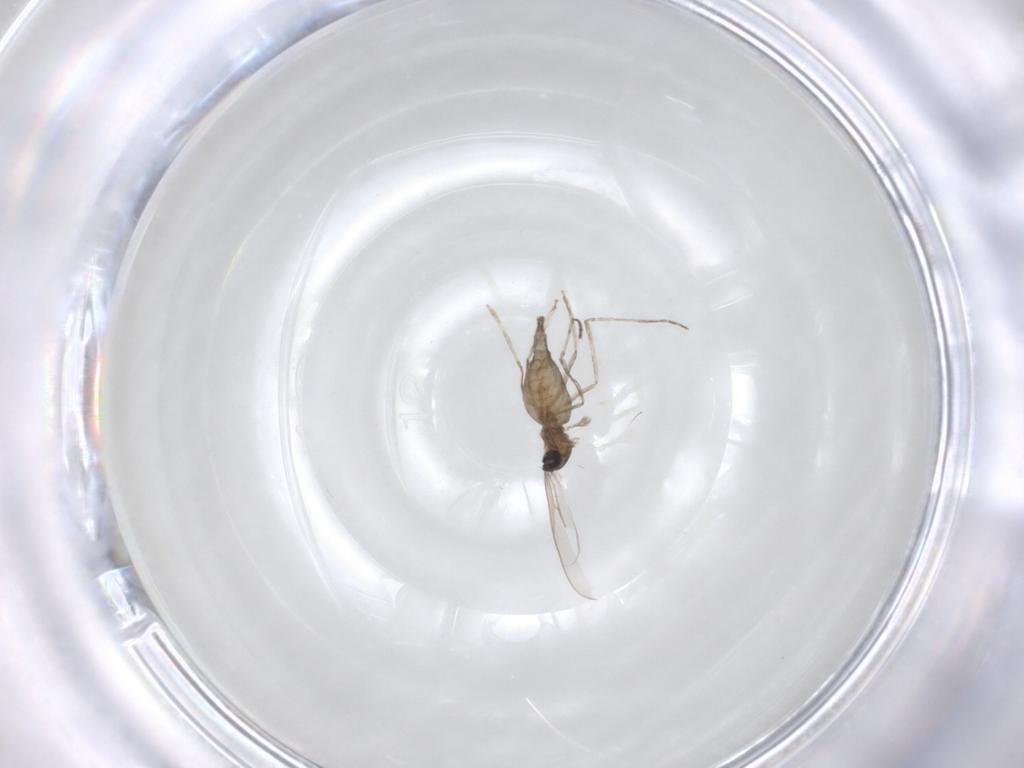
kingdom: Animalia
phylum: Arthropoda
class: Insecta
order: Diptera
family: Cecidomyiidae
